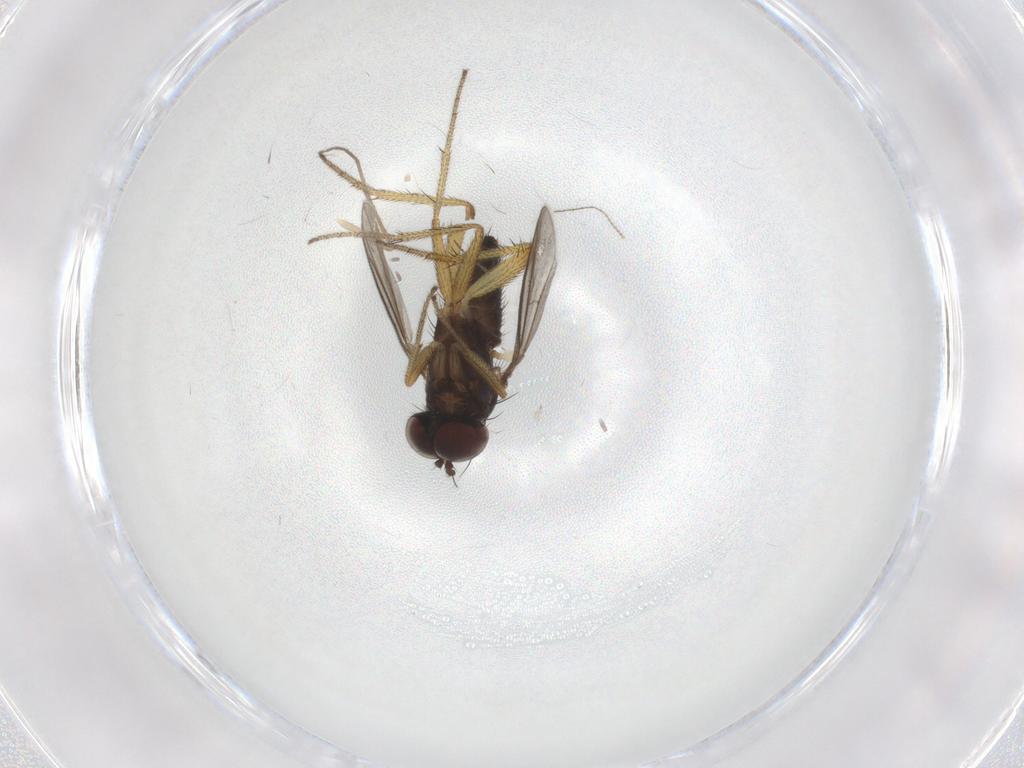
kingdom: Animalia
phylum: Arthropoda
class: Insecta
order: Diptera
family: Chironomidae
